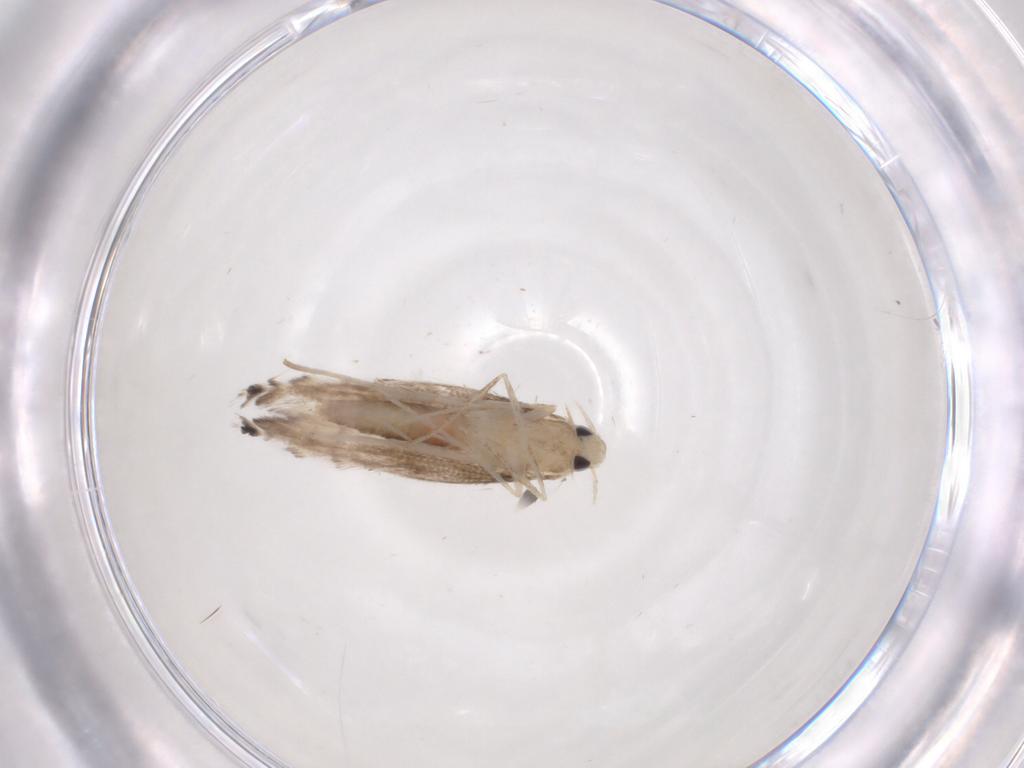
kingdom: Animalia
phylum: Arthropoda
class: Insecta
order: Lepidoptera
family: Gracillariidae
